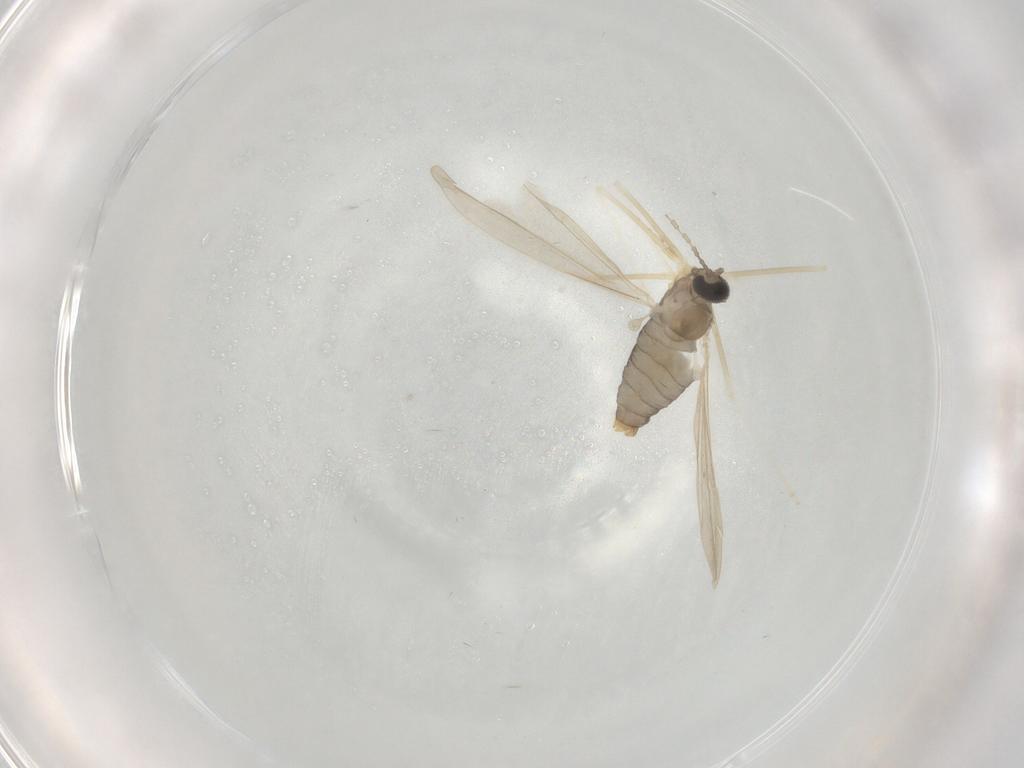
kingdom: Animalia
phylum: Arthropoda
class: Insecta
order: Diptera
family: Cecidomyiidae
